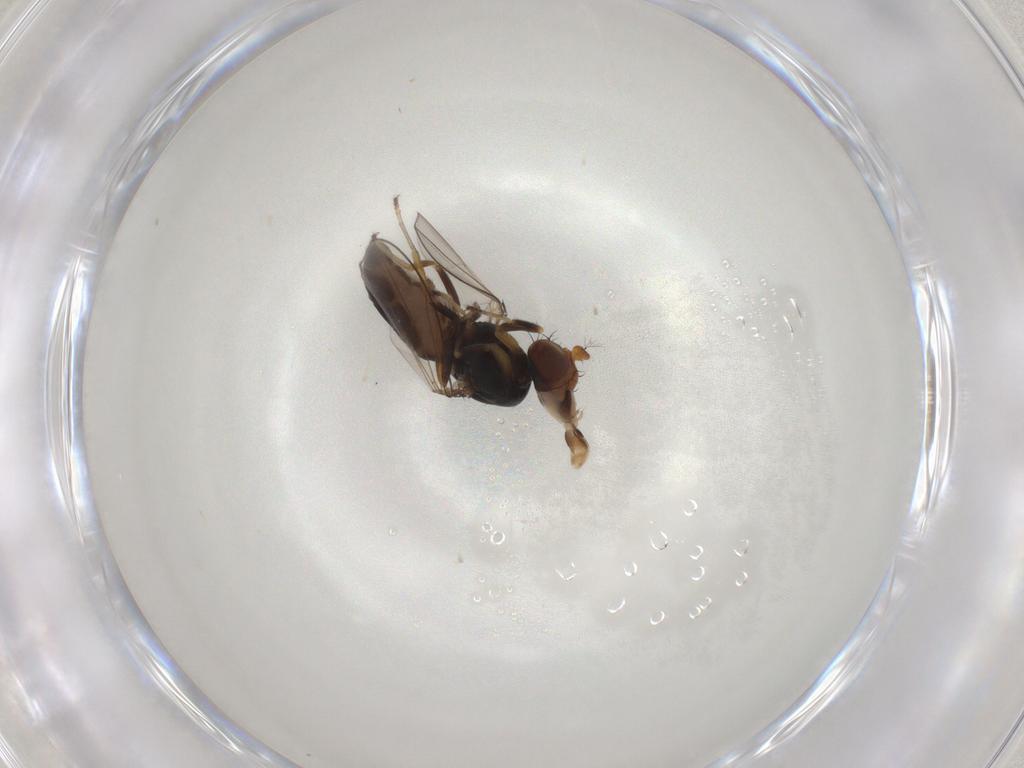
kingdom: Animalia
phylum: Arthropoda
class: Insecta
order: Diptera
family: Ephydridae
